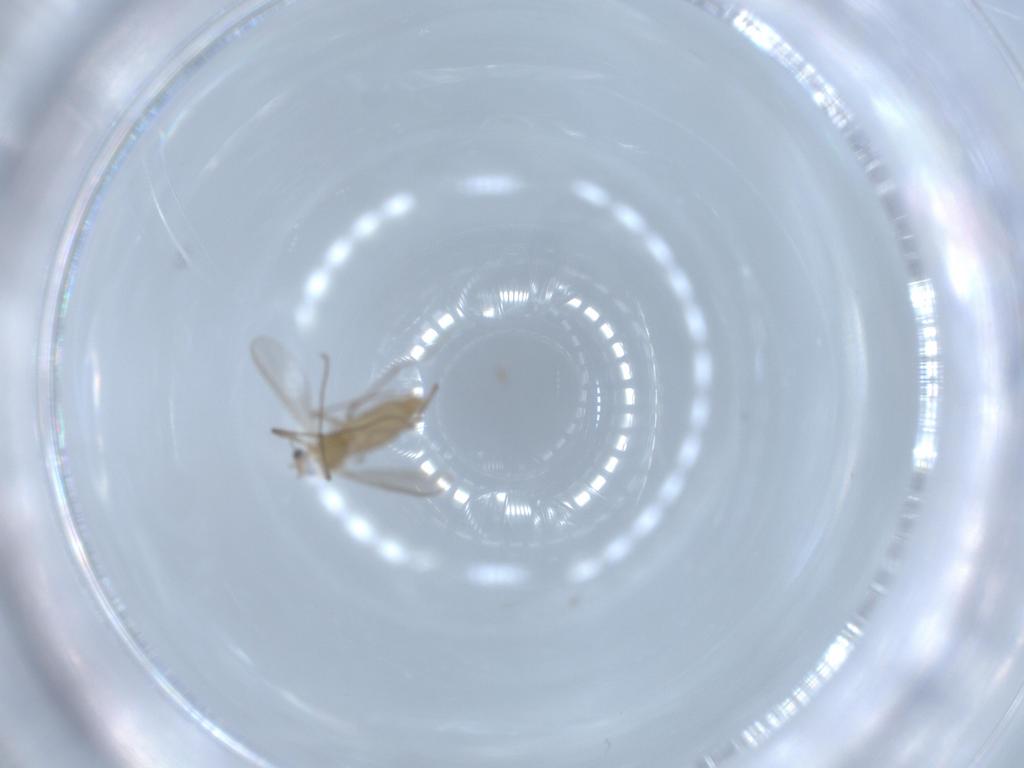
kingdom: Animalia
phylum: Arthropoda
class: Insecta
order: Diptera
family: Chironomidae
